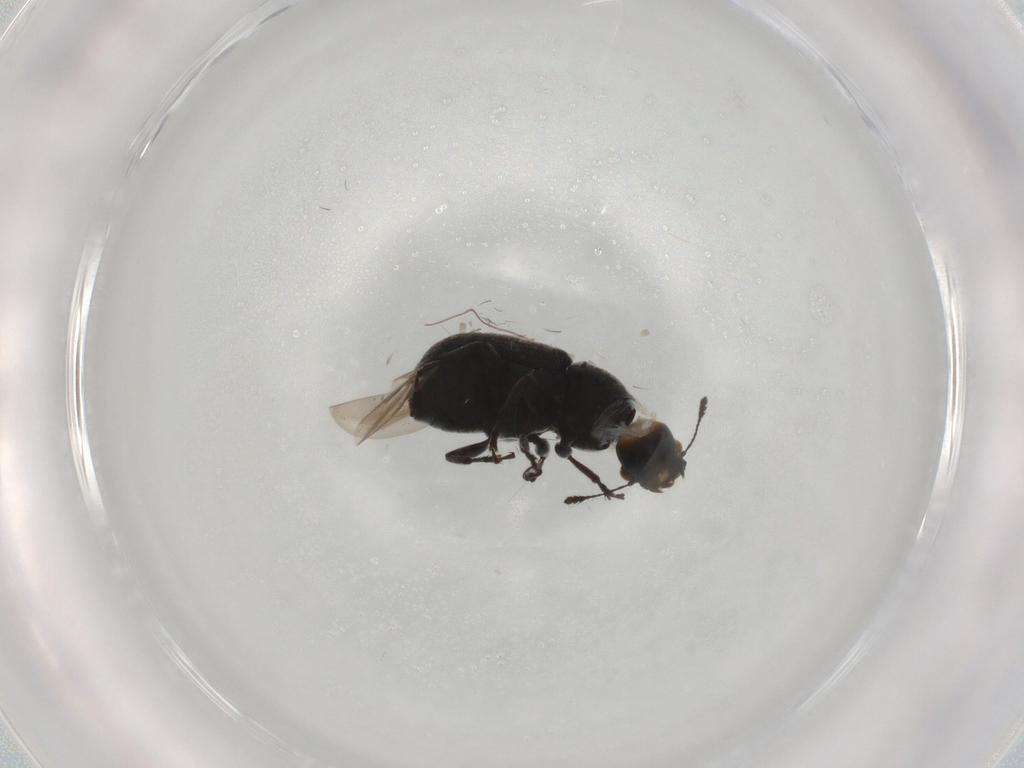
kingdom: Animalia
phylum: Arthropoda
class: Insecta
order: Coleoptera
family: Anthribidae
